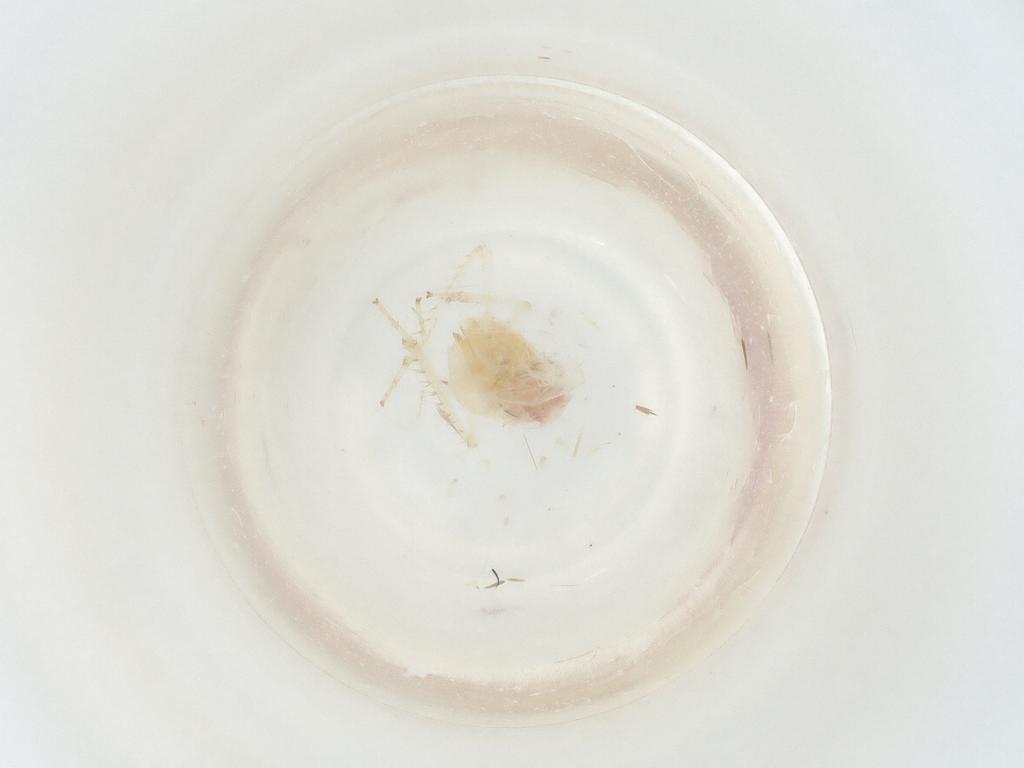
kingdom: Animalia
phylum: Arthropoda
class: Insecta
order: Hemiptera
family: Cicadellidae
